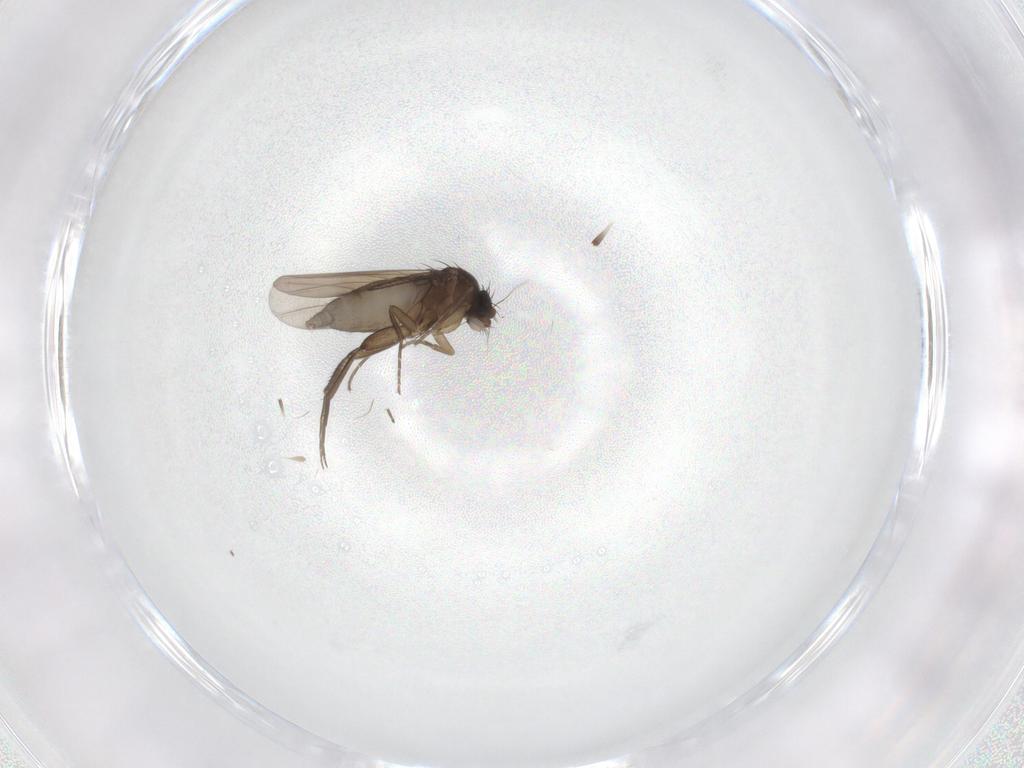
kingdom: Animalia
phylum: Arthropoda
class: Insecta
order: Diptera
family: Phoridae
